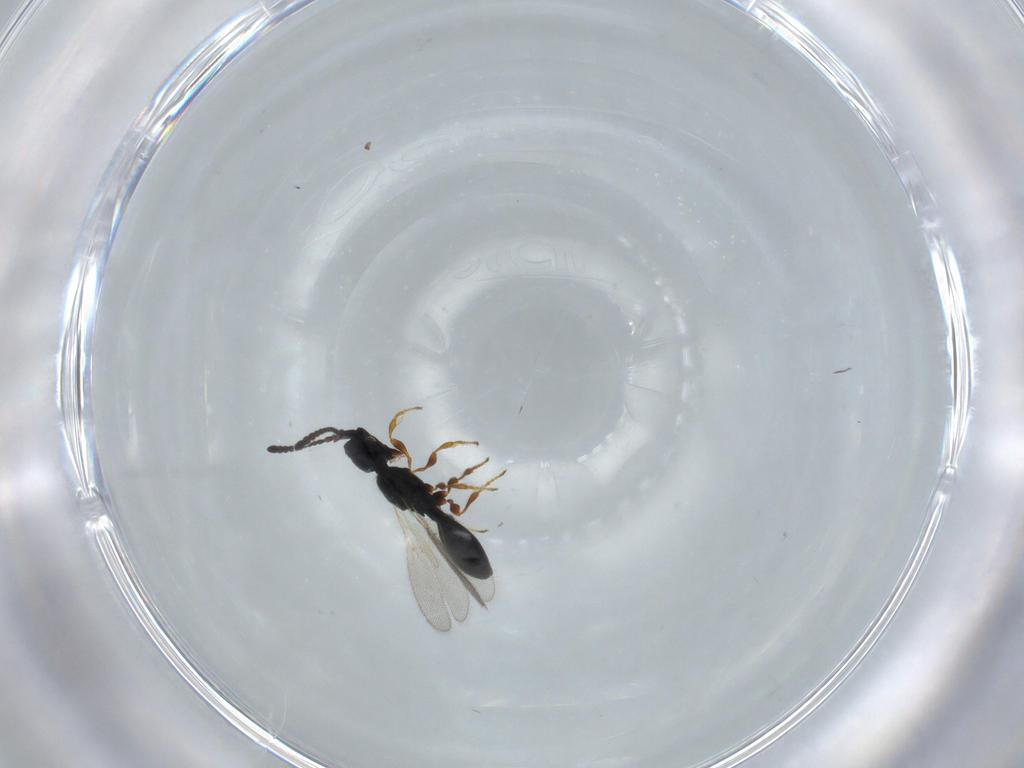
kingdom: Animalia
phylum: Arthropoda
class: Insecta
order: Hymenoptera
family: Diapriidae
